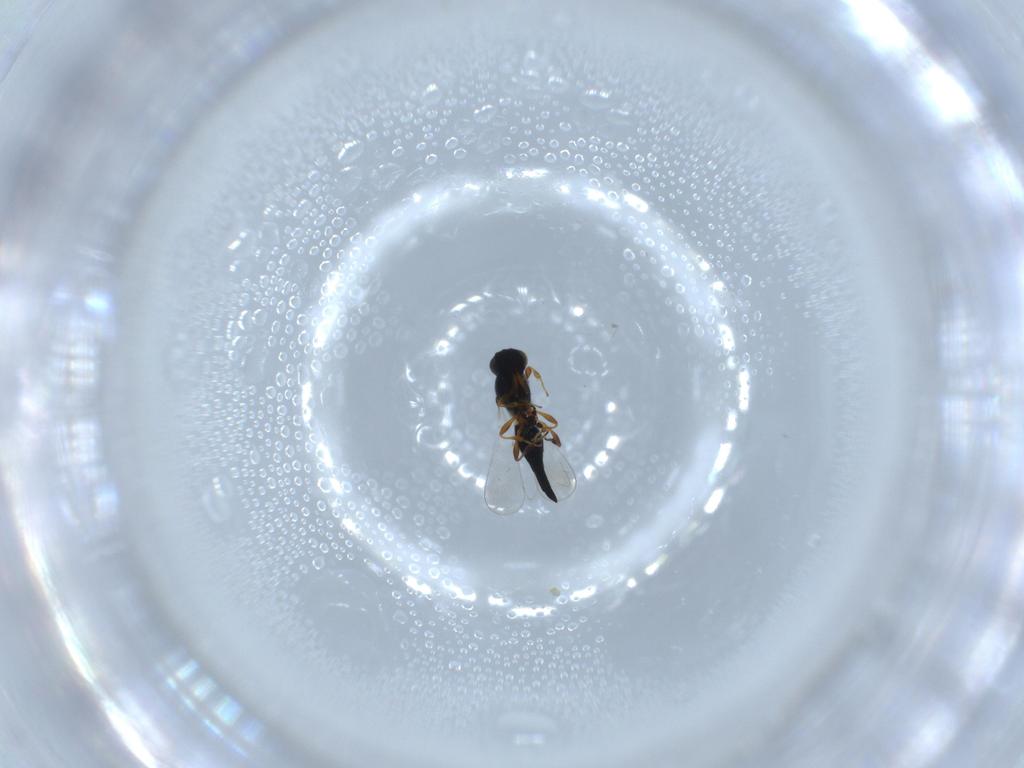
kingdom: Animalia
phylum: Arthropoda
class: Insecta
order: Hymenoptera
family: Platygastridae
